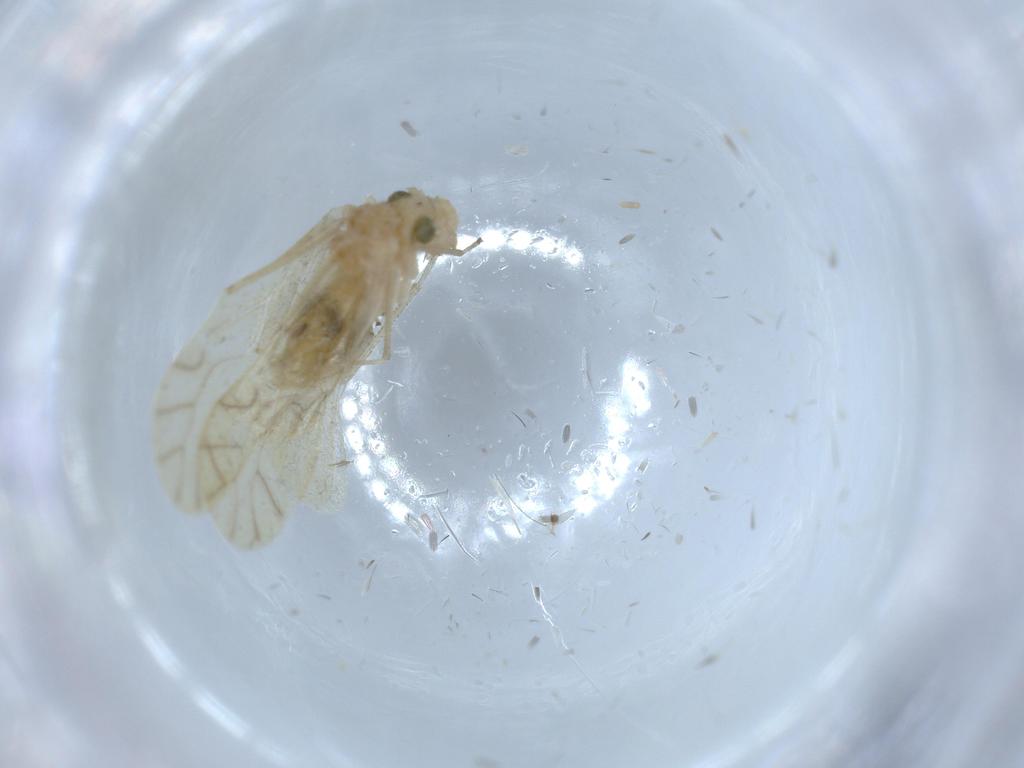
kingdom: Animalia
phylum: Arthropoda
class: Insecta
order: Psocodea
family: Caeciliusidae
